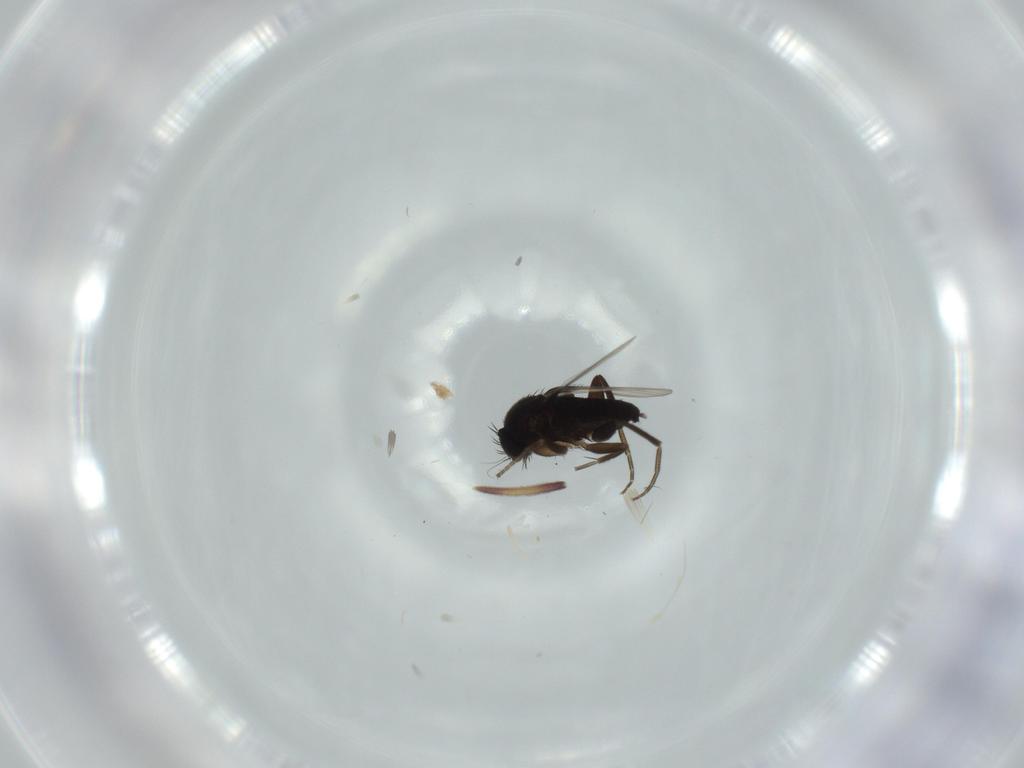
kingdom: Animalia
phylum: Arthropoda
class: Insecta
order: Diptera
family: Phoridae
